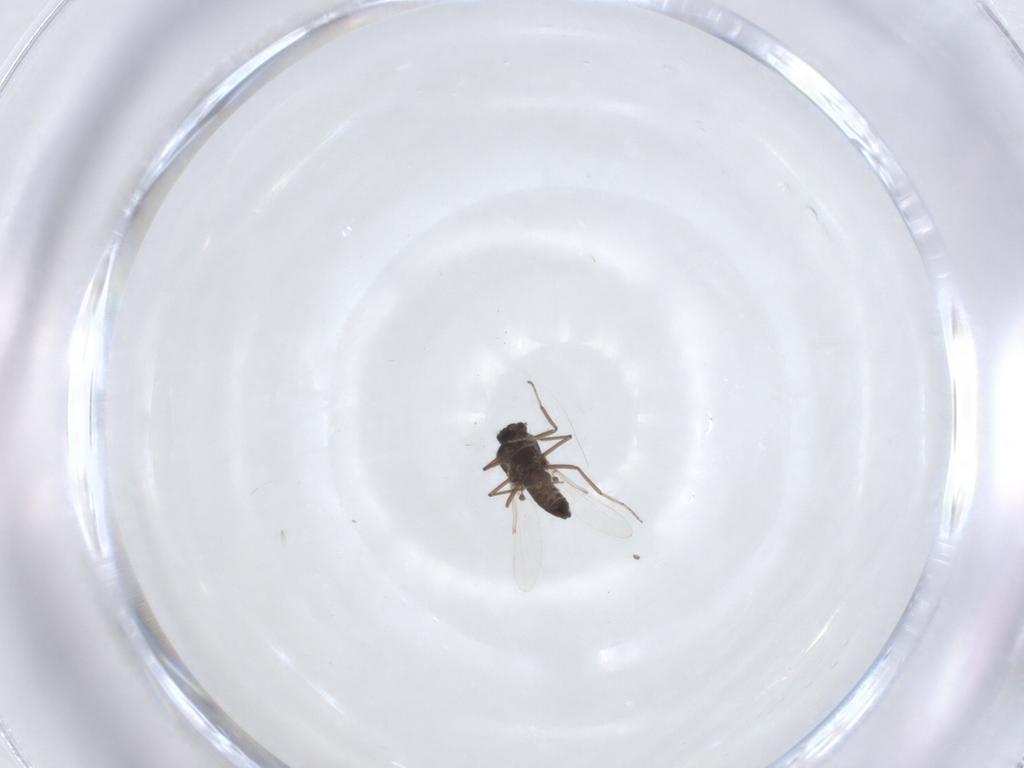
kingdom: Animalia
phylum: Arthropoda
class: Insecta
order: Diptera
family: Ceratopogonidae
